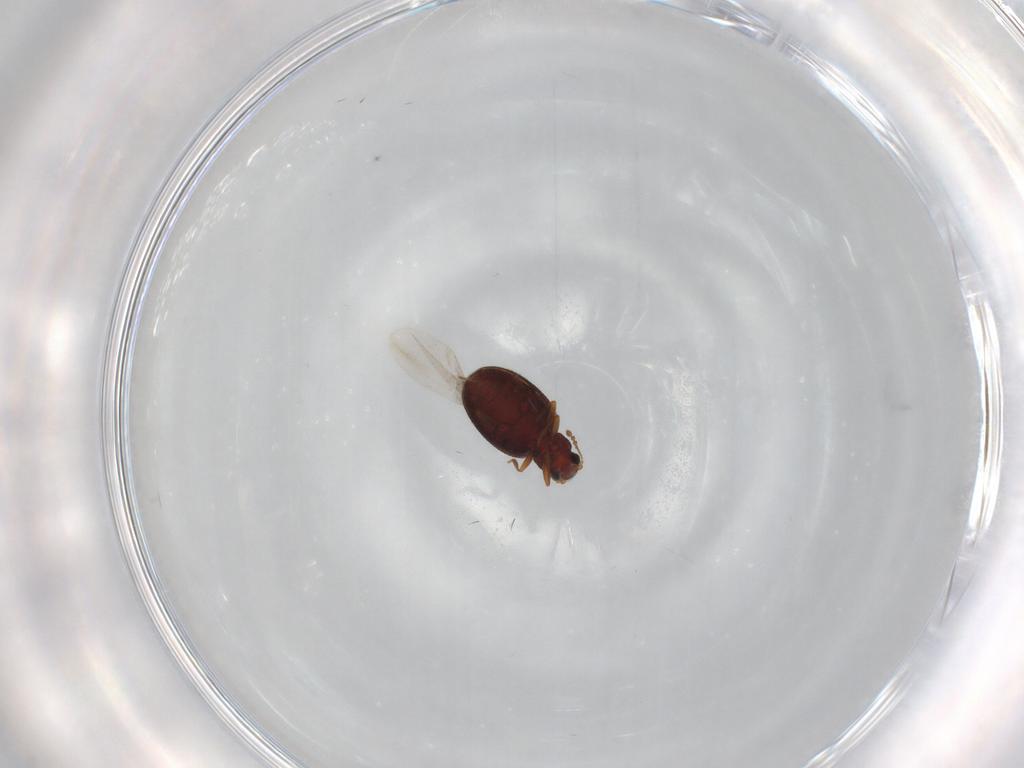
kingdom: Animalia
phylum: Arthropoda
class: Insecta
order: Coleoptera
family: Latridiidae
